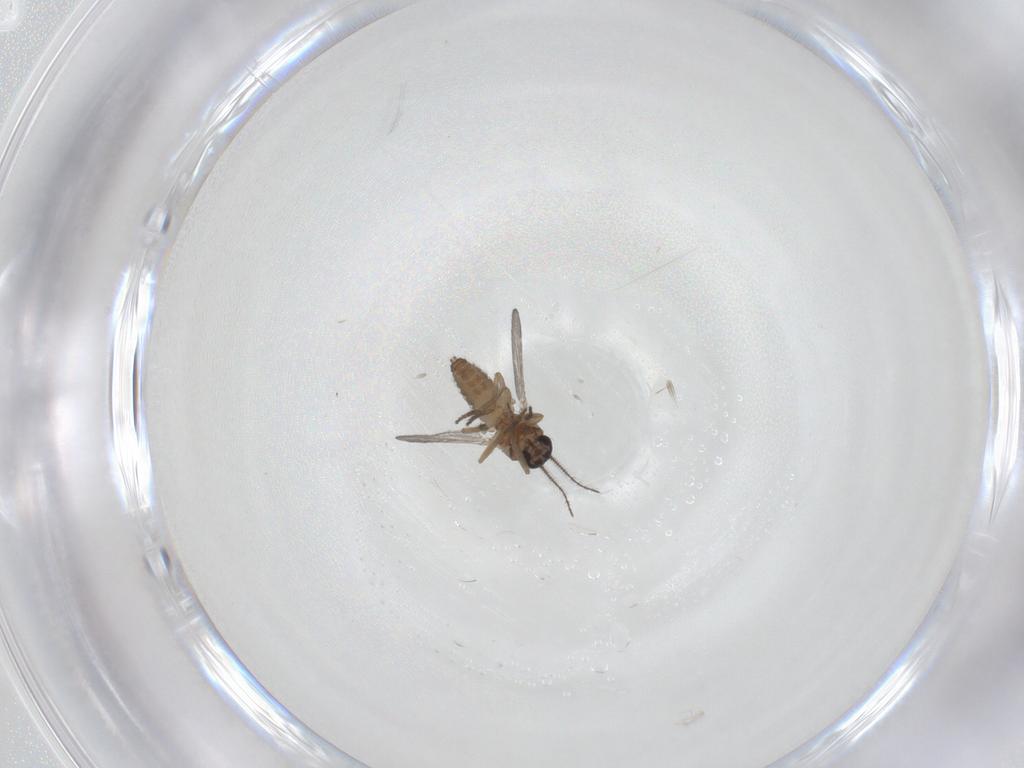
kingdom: Animalia
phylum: Arthropoda
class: Insecta
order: Diptera
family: Ceratopogonidae
